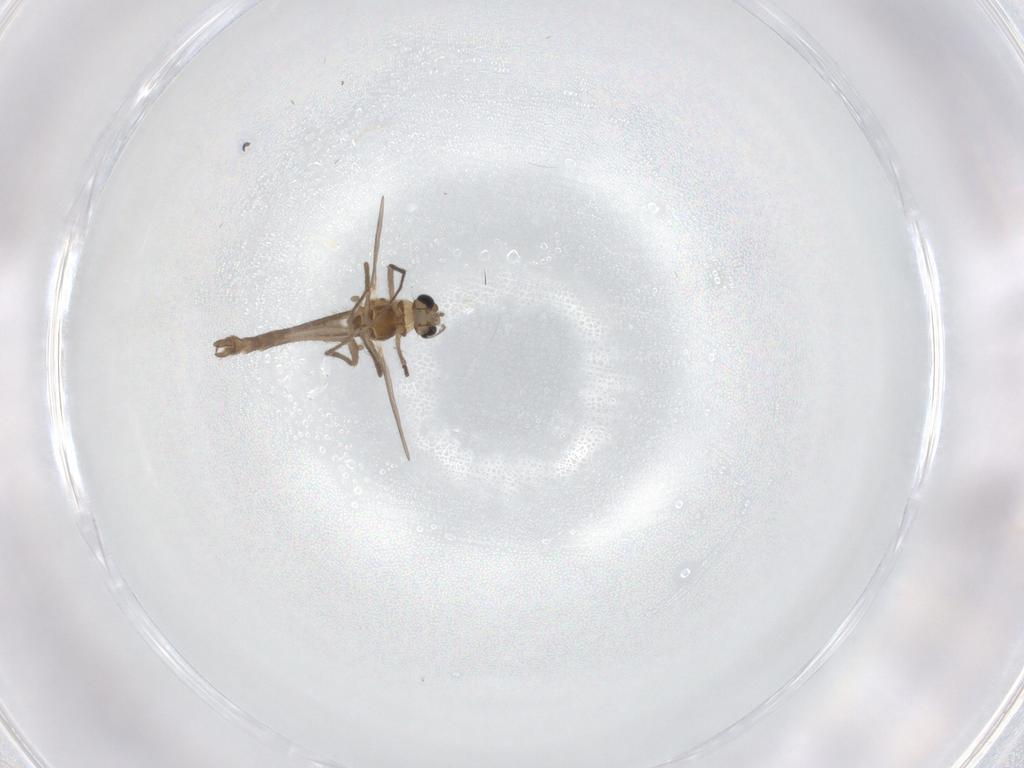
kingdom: Animalia
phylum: Arthropoda
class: Insecta
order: Diptera
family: Chironomidae
